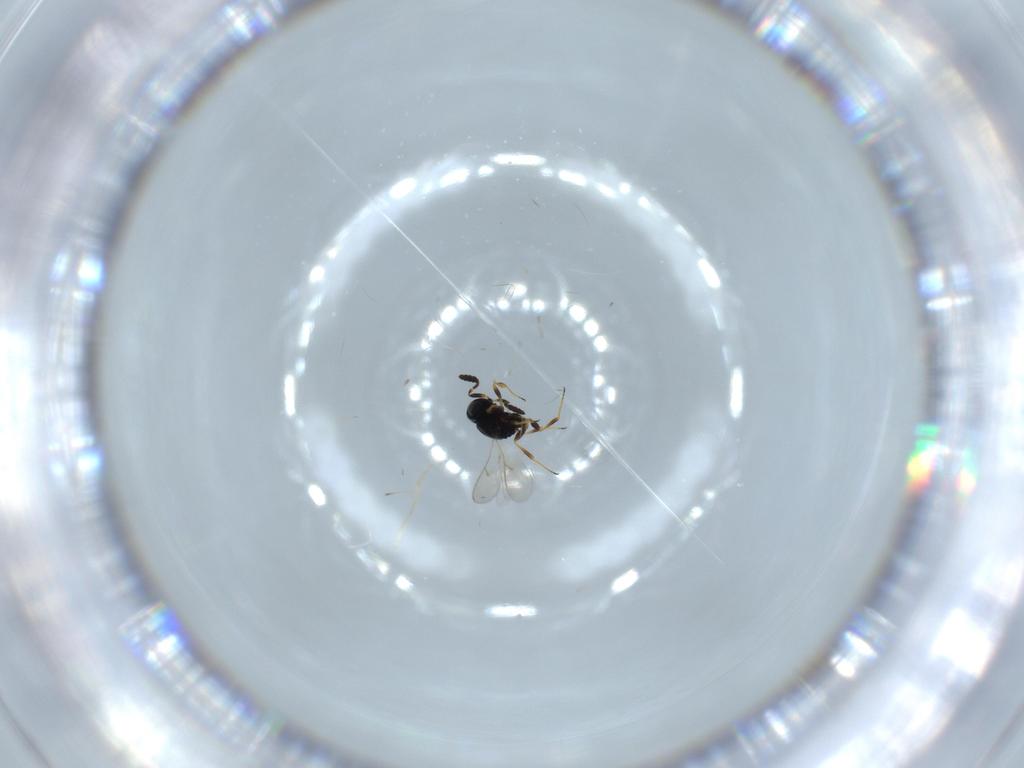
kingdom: Animalia
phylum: Arthropoda
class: Insecta
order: Hymenoptera
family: Scelionidae
